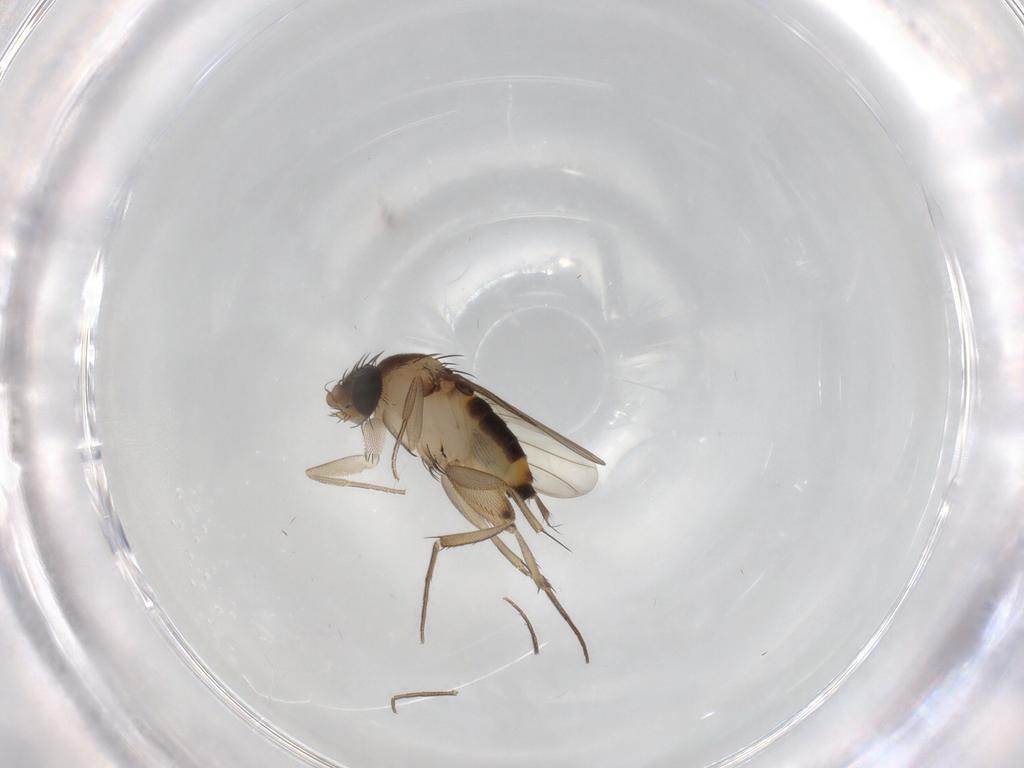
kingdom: Animalia
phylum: Arthropoda
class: Insecta
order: Diptera
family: Phoridae
